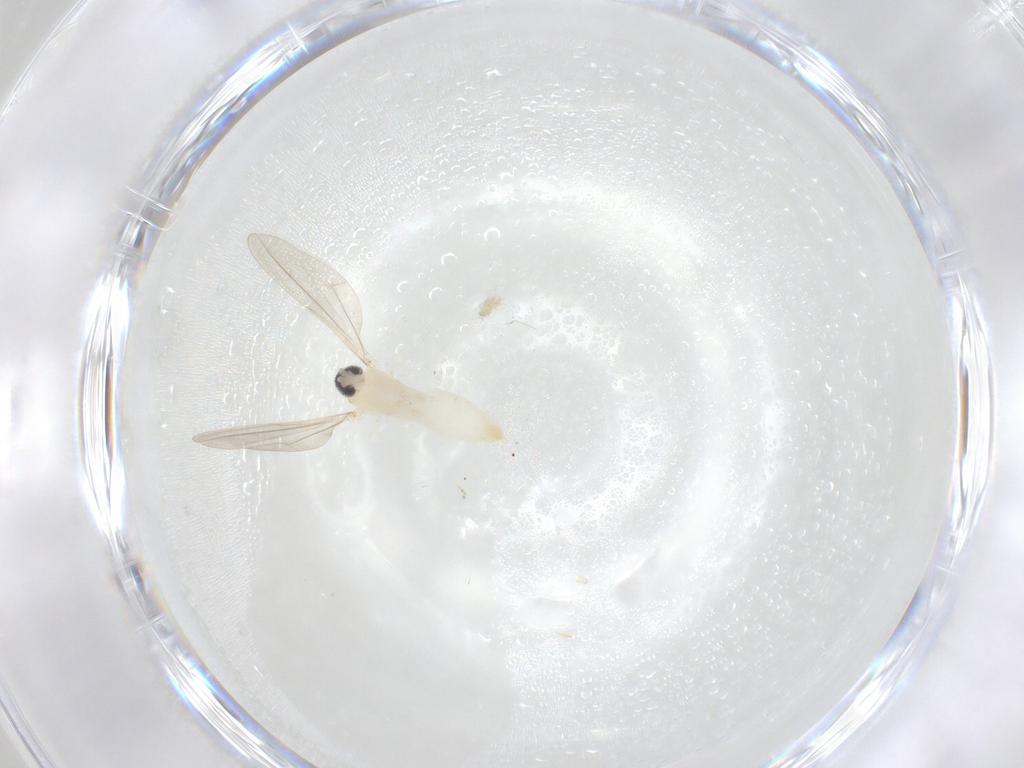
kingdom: Animalia
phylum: Arthropoda
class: Insecta
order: Diptera
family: Cecidomyiidae
